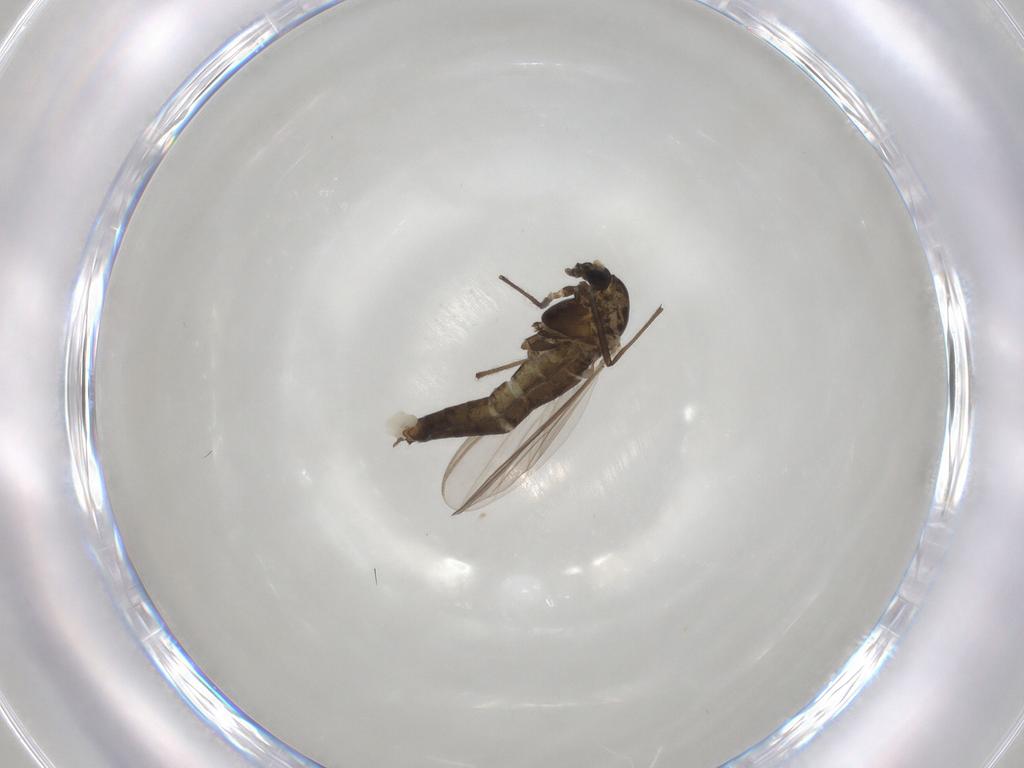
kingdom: Animalia
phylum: Arthropoda
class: Insecta
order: Diptera
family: Chironomidae
